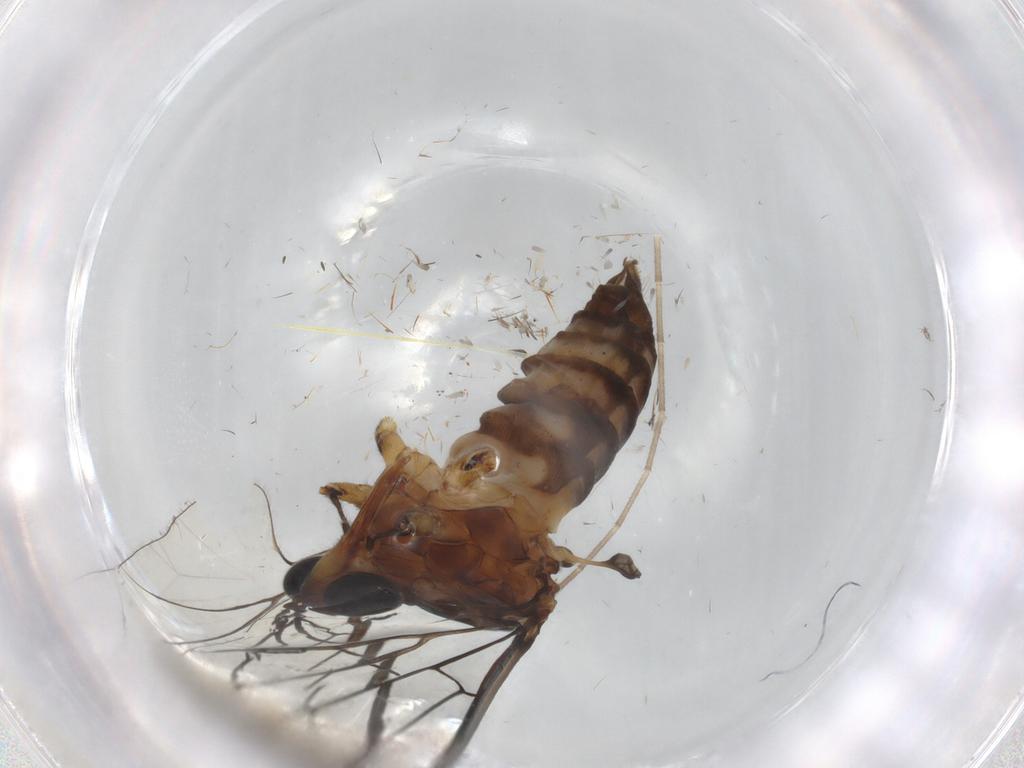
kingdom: Animalia
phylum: Arthropoda
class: Insecta
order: Diptera
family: Blephariceridae
